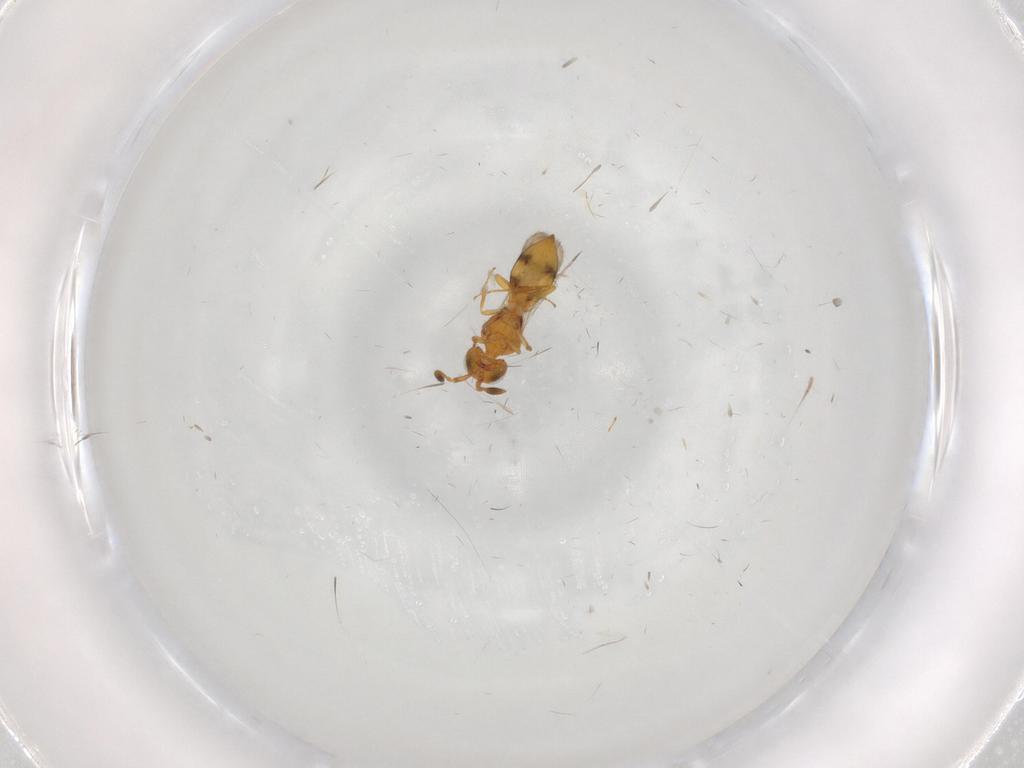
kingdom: Animalia
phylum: Arthropoda
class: Insecta
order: Hymenoptera
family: Scelionidae
